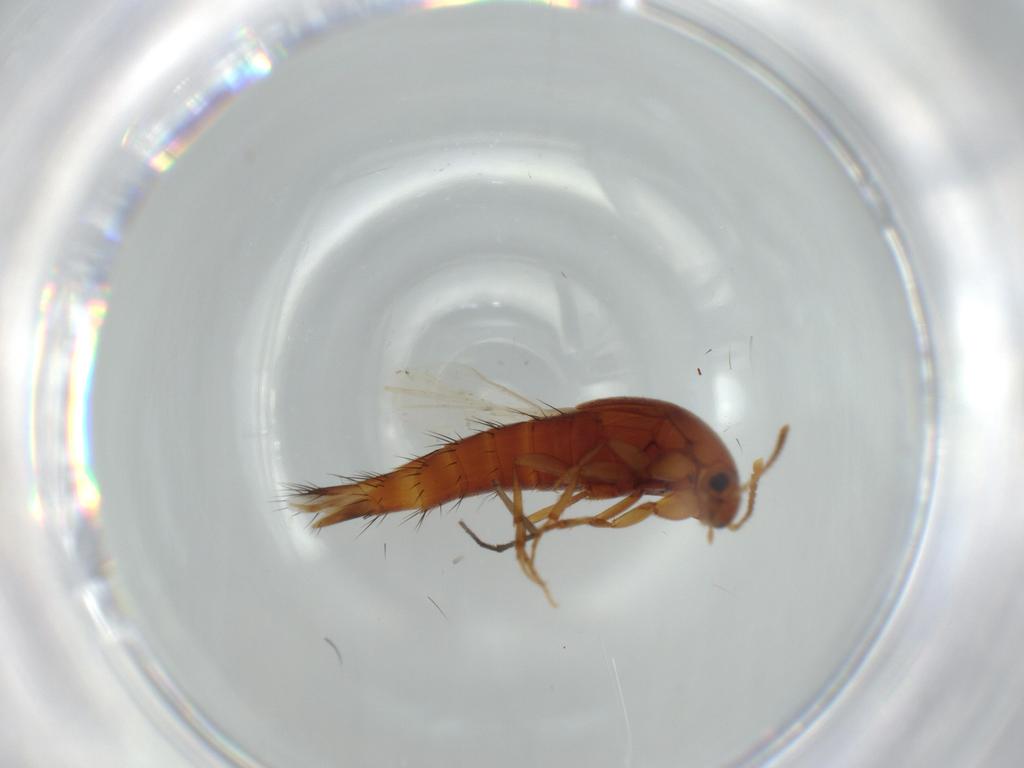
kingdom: Animalia
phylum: Arthropoda
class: Insecta
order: Coleoptera
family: Staphylinidae
